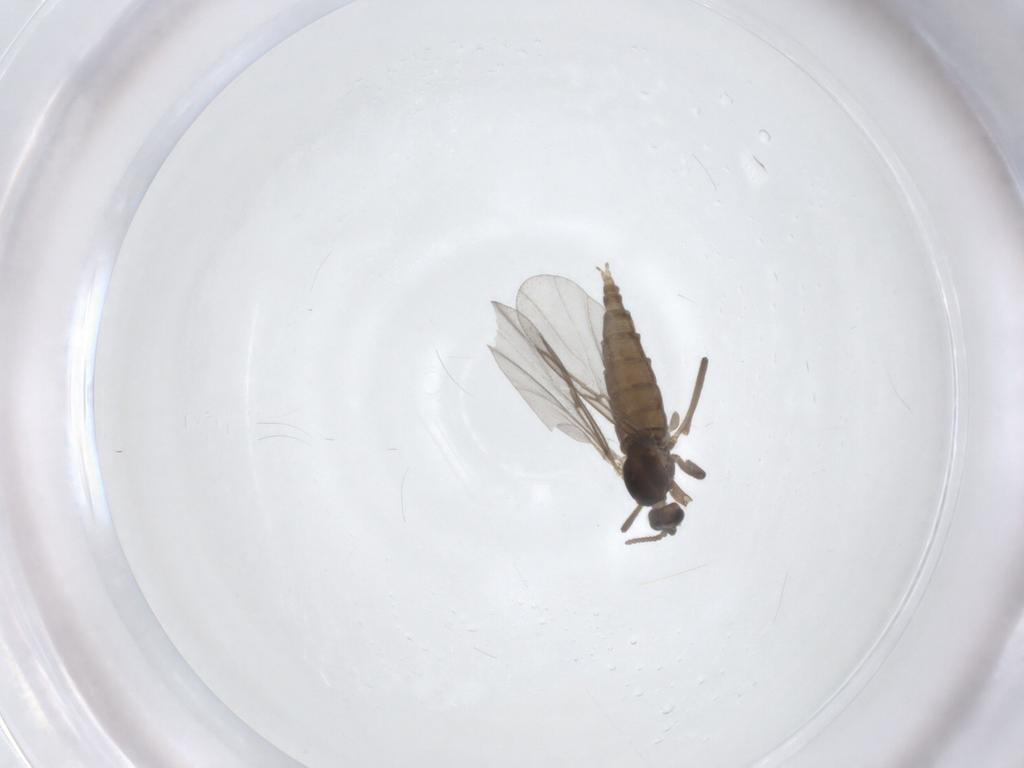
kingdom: Animalia
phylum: Arthropoda
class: Insecta
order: Diptera
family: Cecidomyiidae
